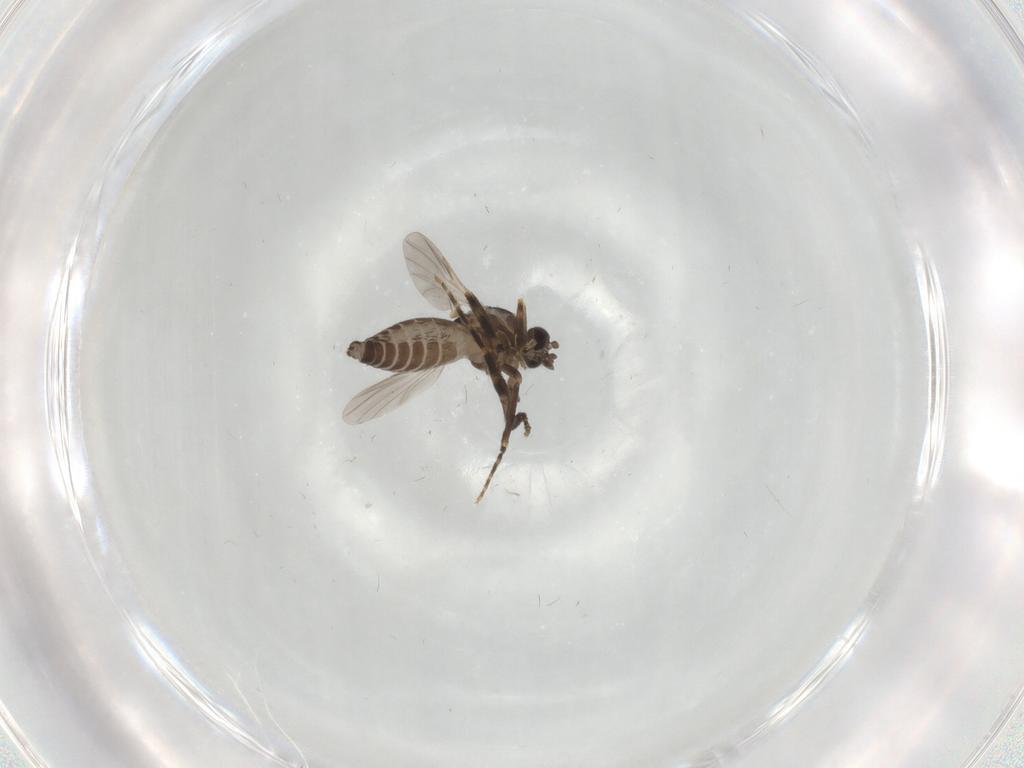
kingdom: Animalia
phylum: Arthropoda
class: Insecta
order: Diptera
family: Ceratopogonidae
